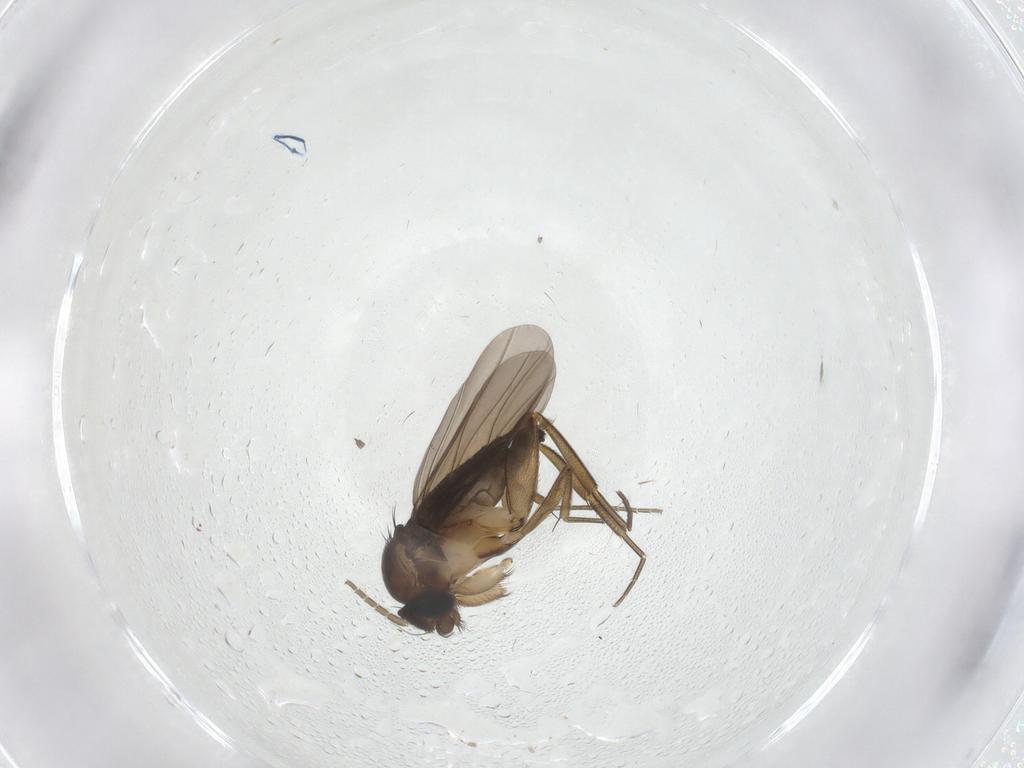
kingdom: Animalia
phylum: Arthropoda
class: Insecta
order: Diptera
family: Phoridae
